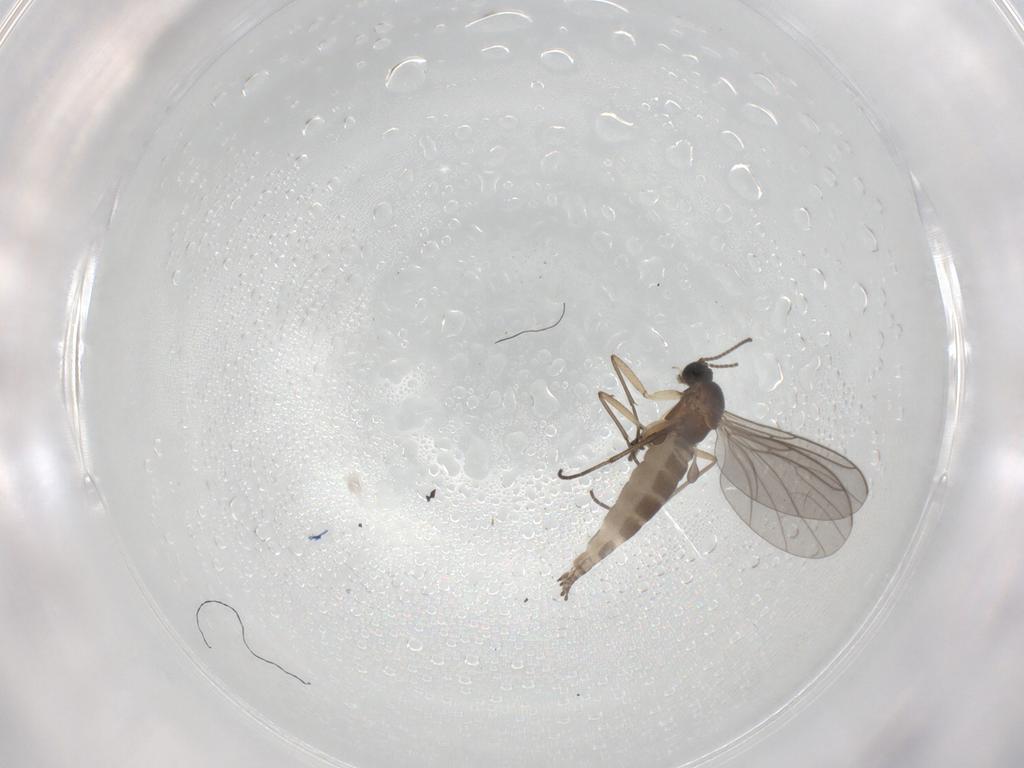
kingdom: Animalia
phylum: Arthropoda
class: Insecta
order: Diptera
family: Sciaridae
